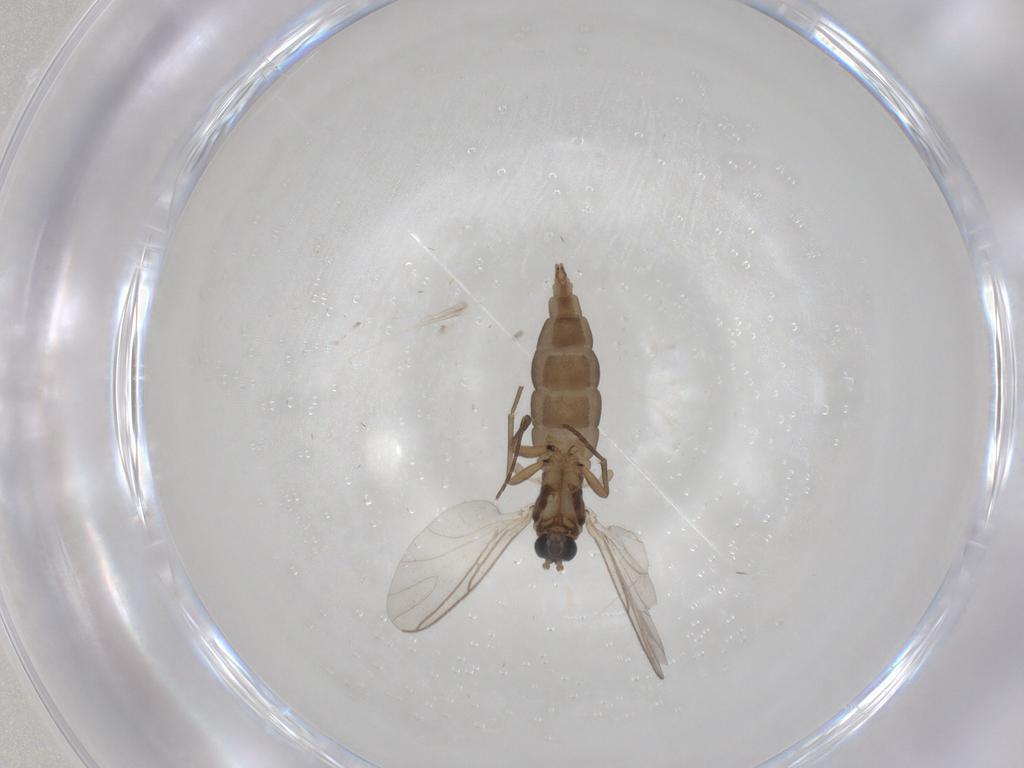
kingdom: Animalia
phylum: Arthropoda
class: Insecta
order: Diptera
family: Sciaridae
